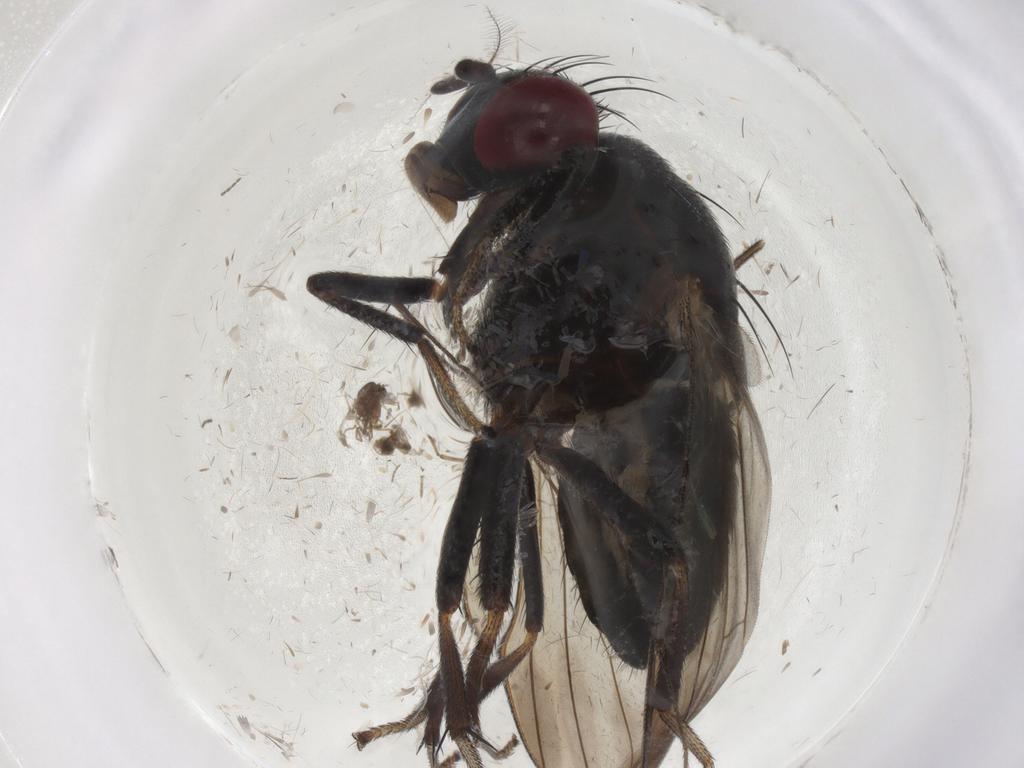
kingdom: Animalia
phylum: Arthropoda
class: Insecta
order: Diptera
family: Lauxaniidae
